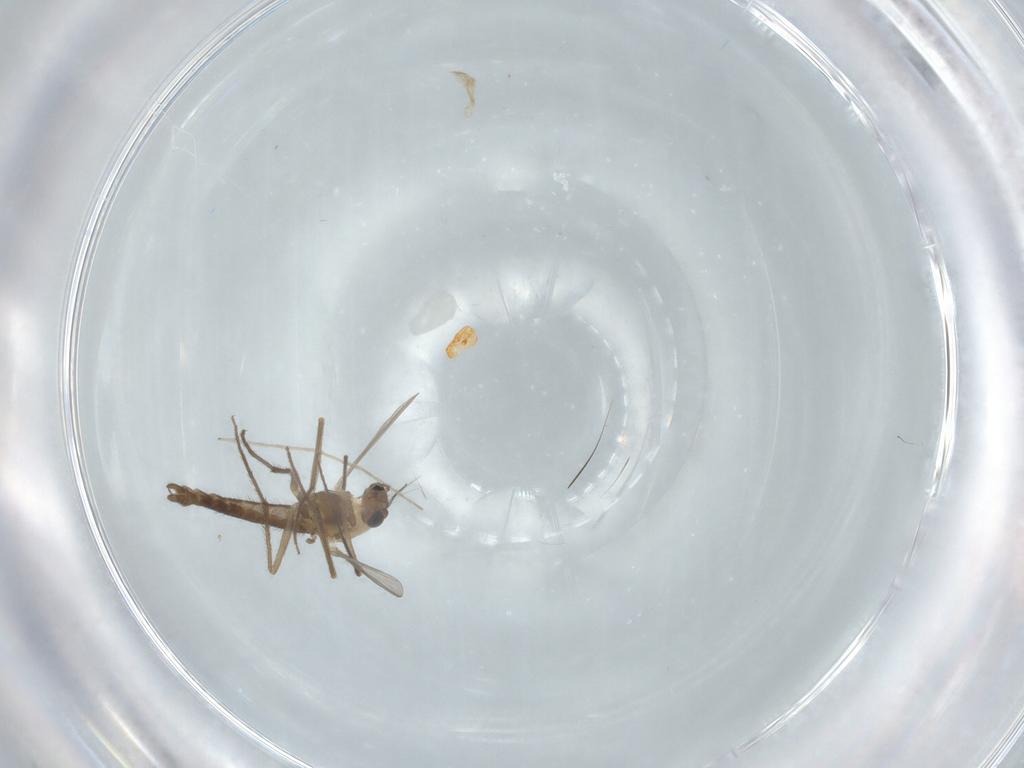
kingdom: Animalia
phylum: Arthropoda
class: Insecta
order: Diptera
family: Chironomidae
